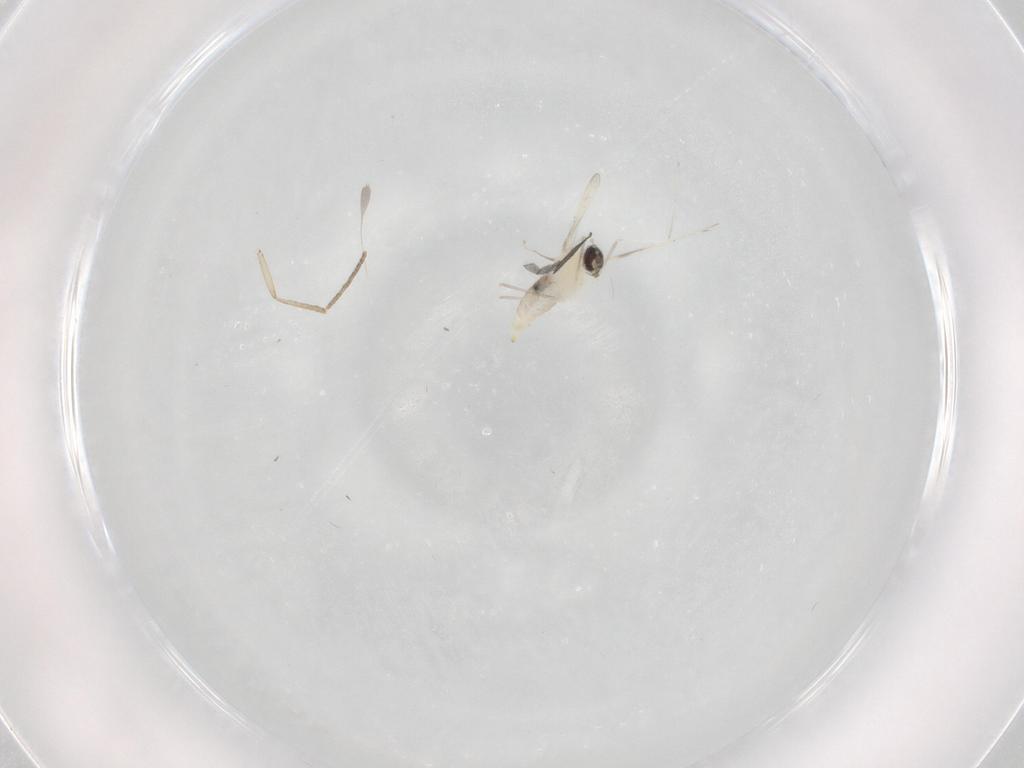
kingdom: Animalia
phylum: Arthropoda
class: Insecta
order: Diptera
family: Cecidomyiidae
